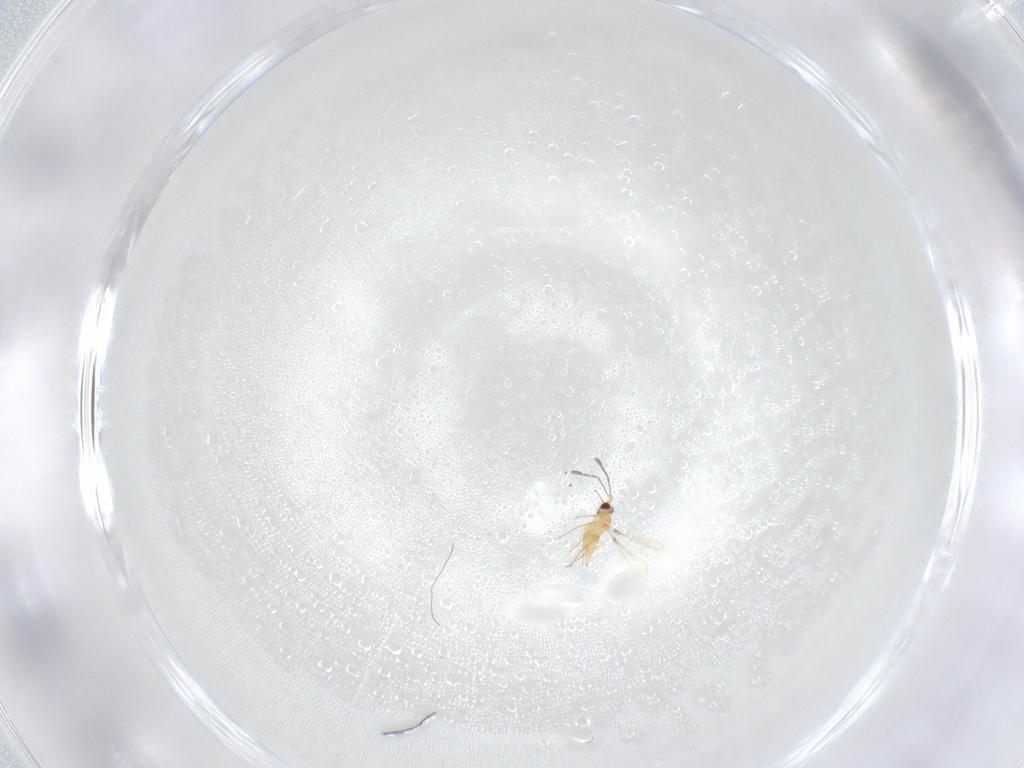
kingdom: Animalia
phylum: Arthropoda
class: Insecta
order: Hymenoptera
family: Mymaridae
